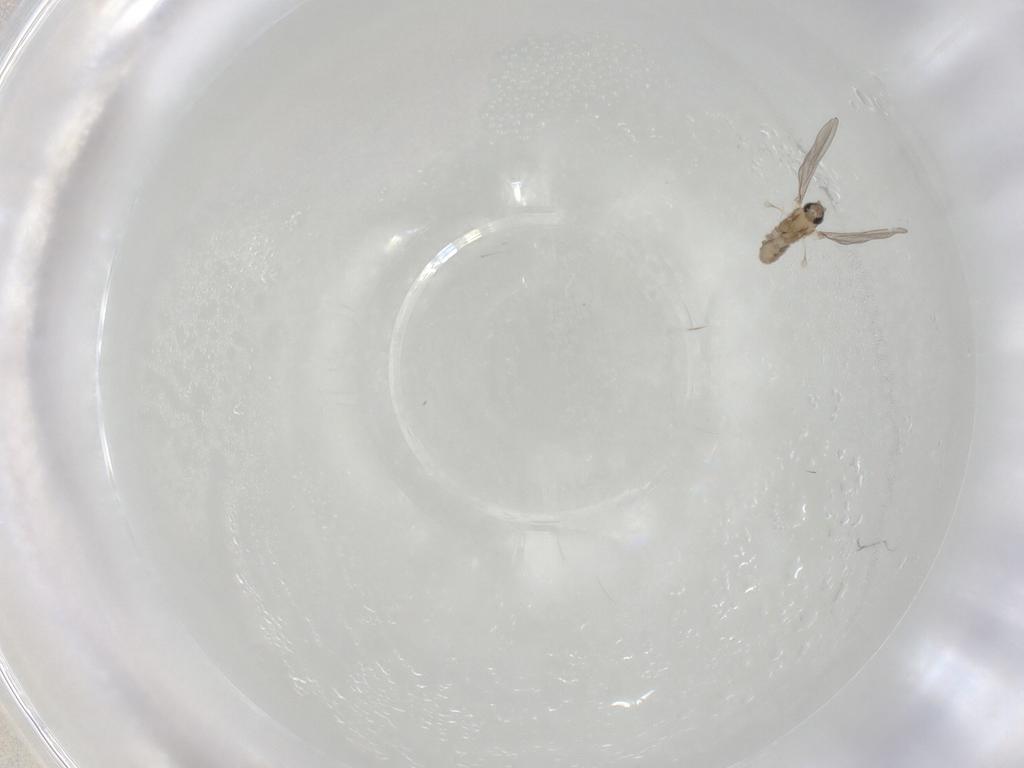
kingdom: Animalia
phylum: Arthropoda
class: Insecta
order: Diptera
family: Cecidomyiidae
